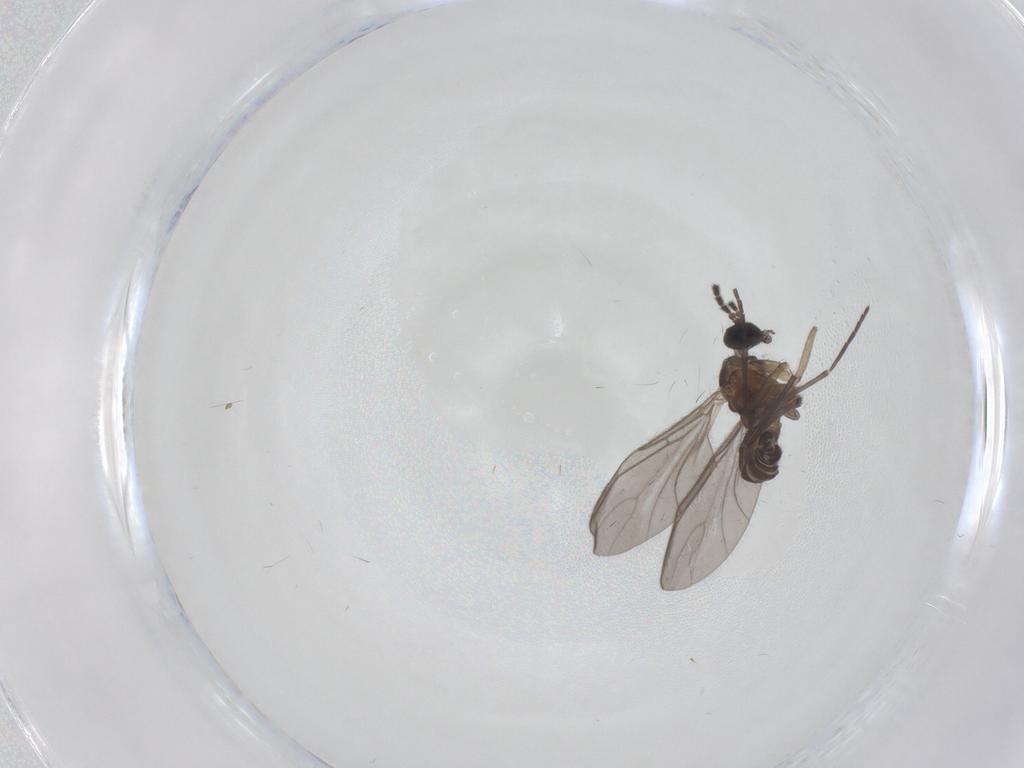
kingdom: Animalia
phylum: Arthropoda
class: Insecta
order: Diptera
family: Sciaridae
